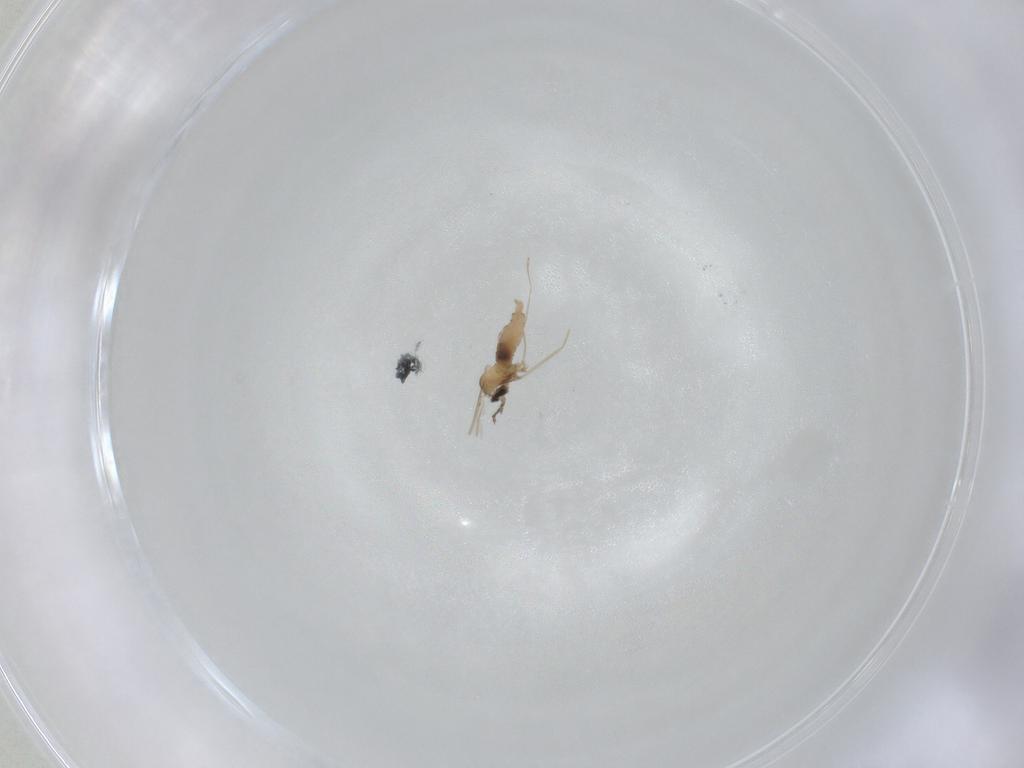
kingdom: Animalia
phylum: Arthropoda
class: Insecta
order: Diptera
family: Cecidomyiidae
